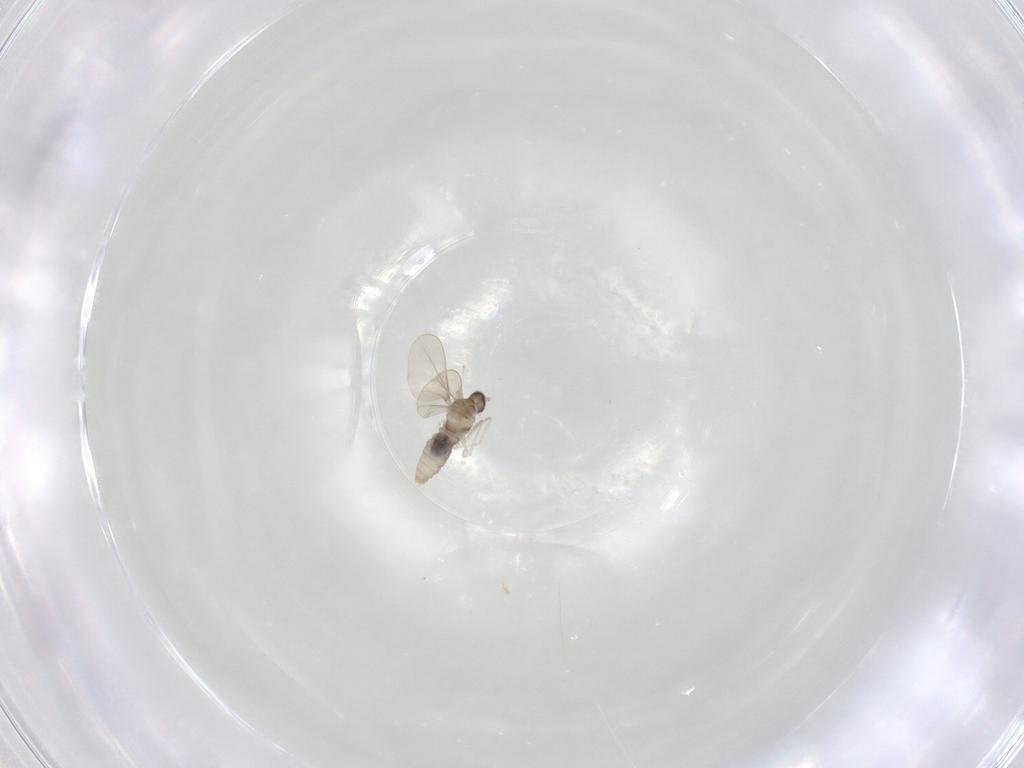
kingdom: Animalia
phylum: Arthropoda
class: Insecta
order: Diptera
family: Cecidomyiidae
